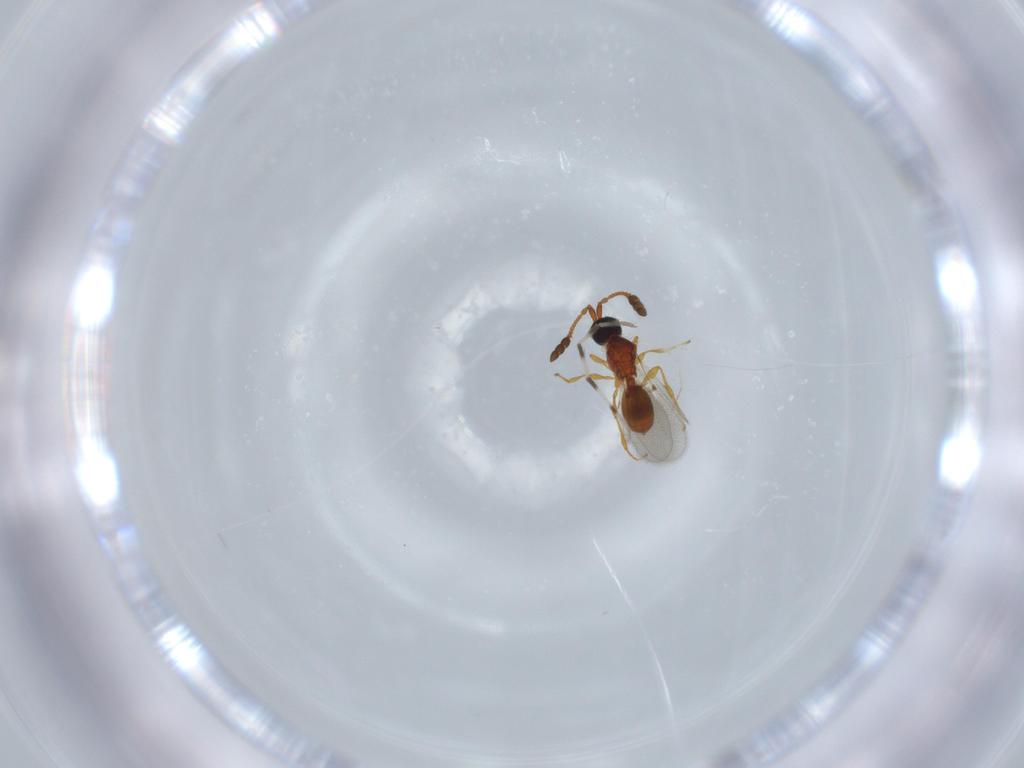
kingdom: Animalia
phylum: Arthropoda
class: Insecta
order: Hymenoptera
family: Diapriidae
